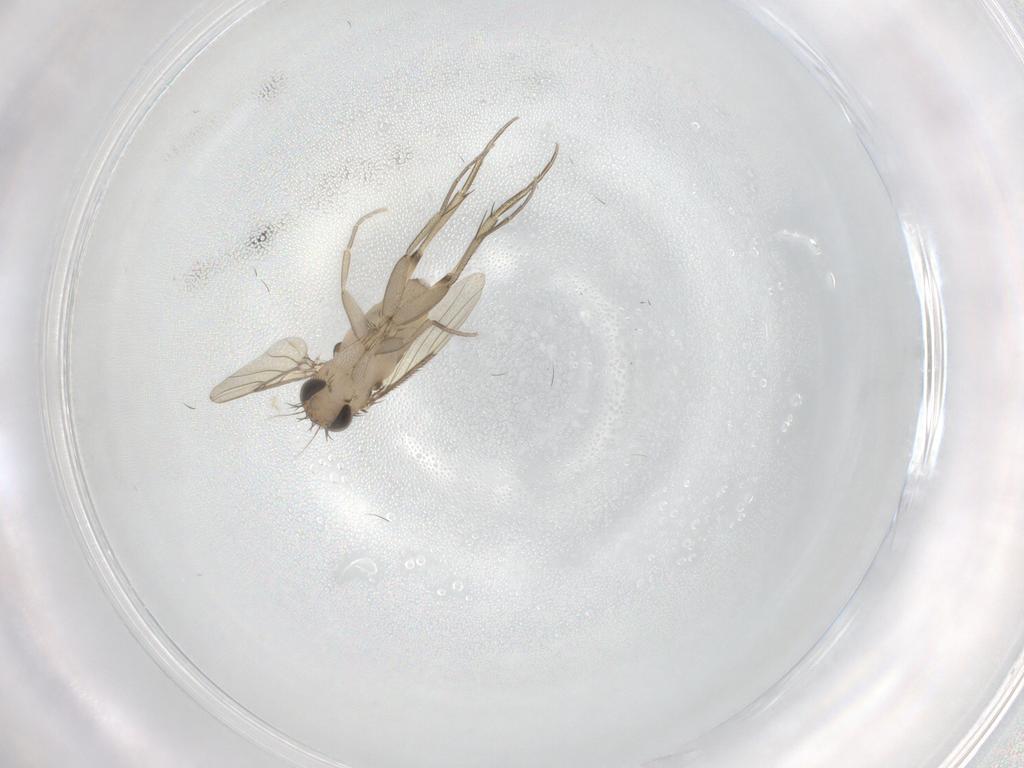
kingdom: Animalia
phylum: Arthropoda
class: Insecta
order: Diptera
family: Phoridae
